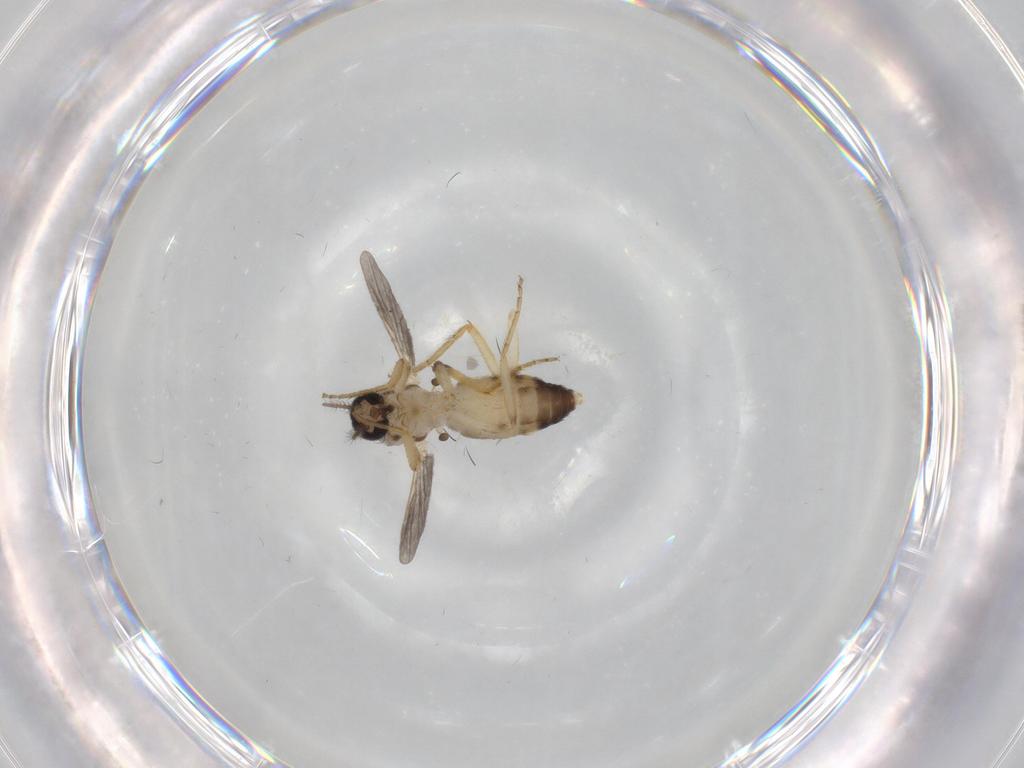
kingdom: Animalia
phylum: Arthropoda
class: Insecta
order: Diptera
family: Ceratopogonidae
